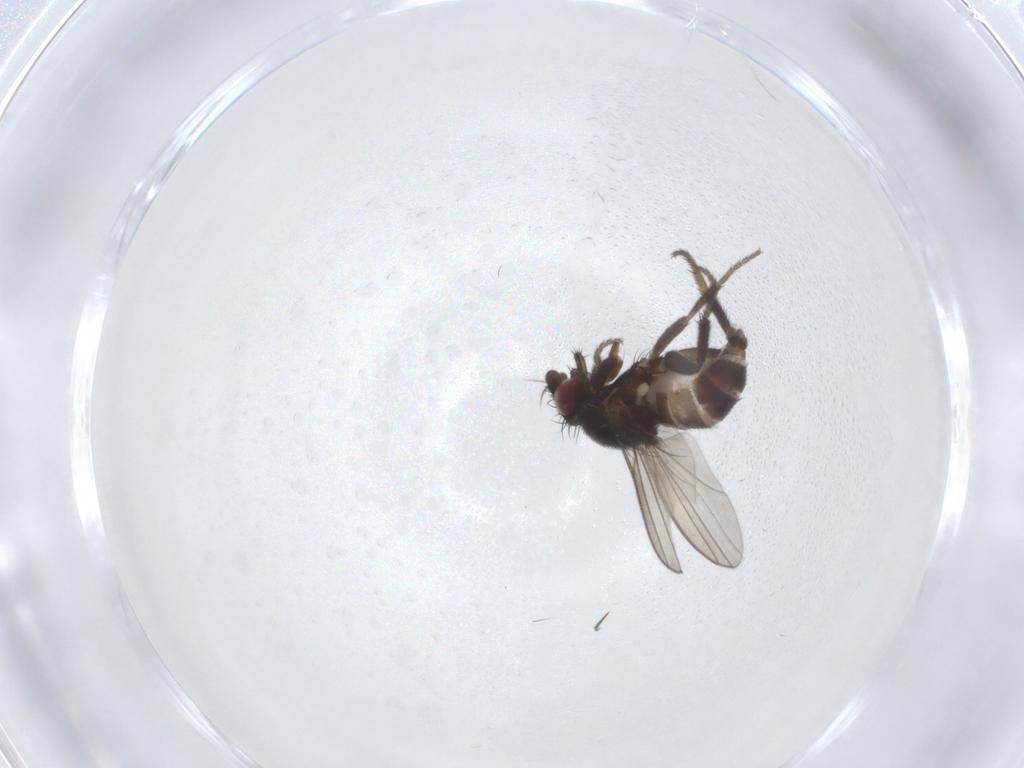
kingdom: Animalia
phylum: Arthropoda
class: Insecta
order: Diptera
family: Milichiidae
